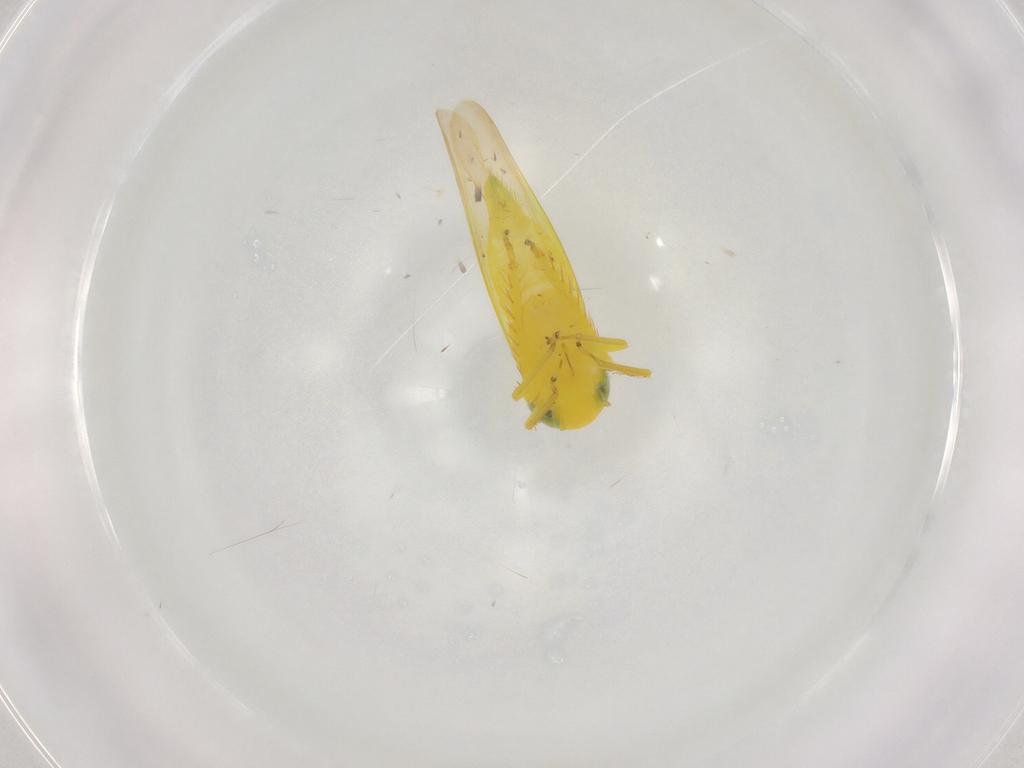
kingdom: Animalia
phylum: Arthropoda
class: Insecta
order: Hemiptera
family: Cicadellidae
